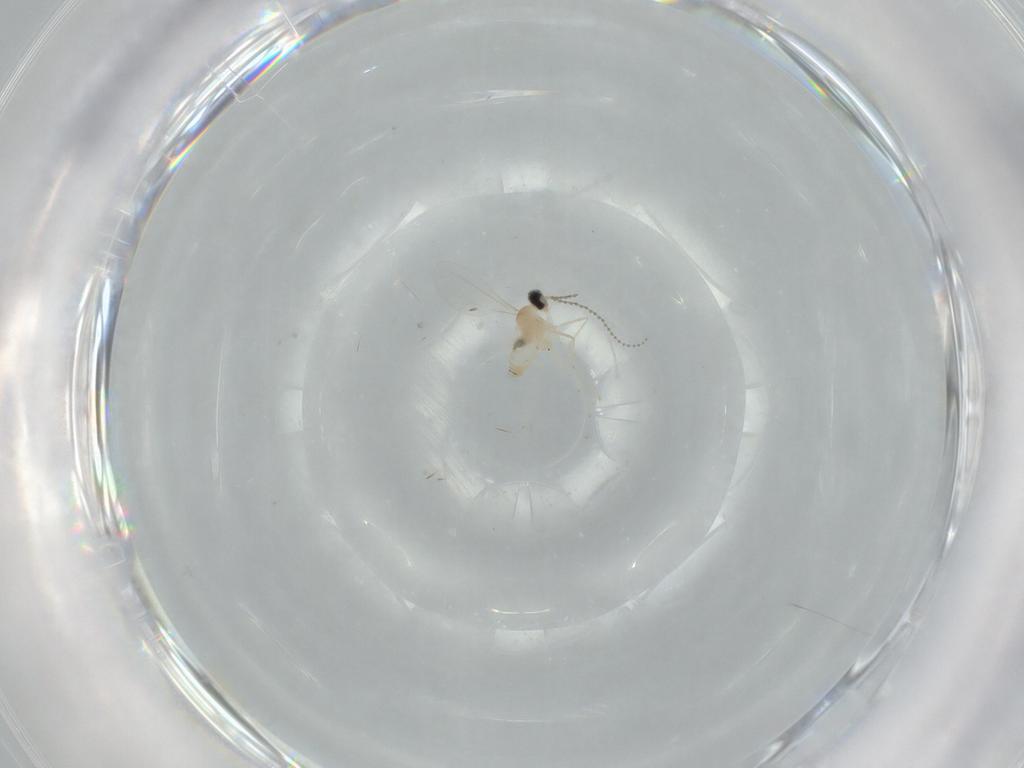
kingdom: Animalia
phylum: Arthropoda
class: Insecta
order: Diptera
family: Cecidomyiidae
